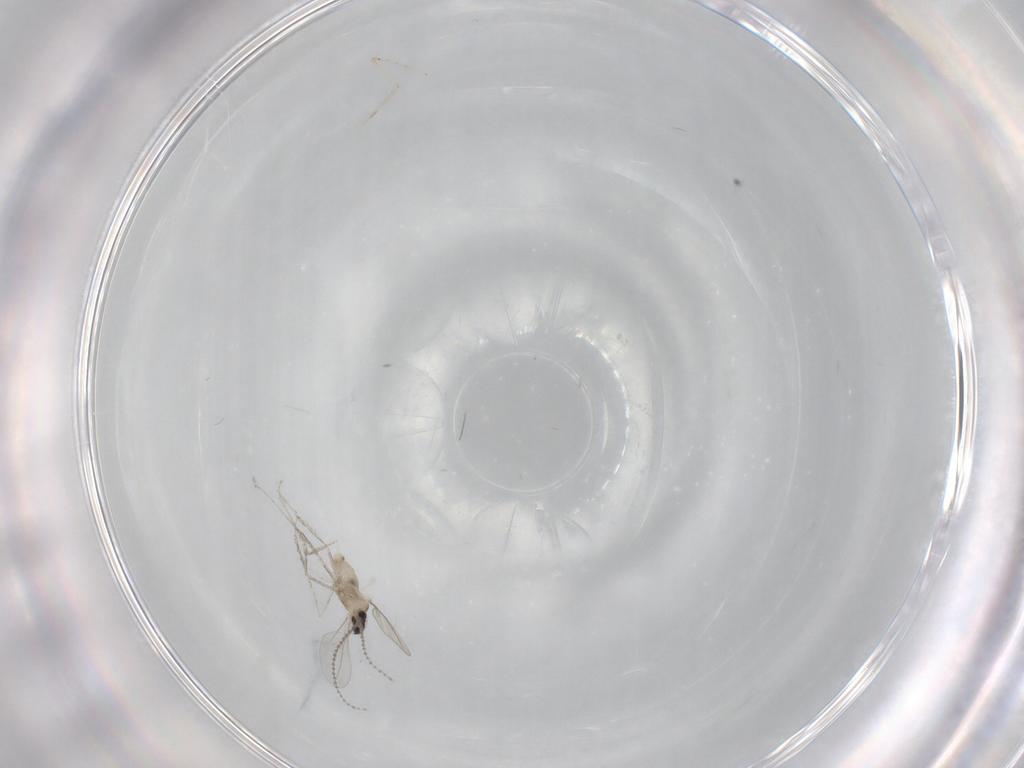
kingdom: Animalia
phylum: Arthropoda
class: Insecta
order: Diptera
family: Cecidomyiidae
